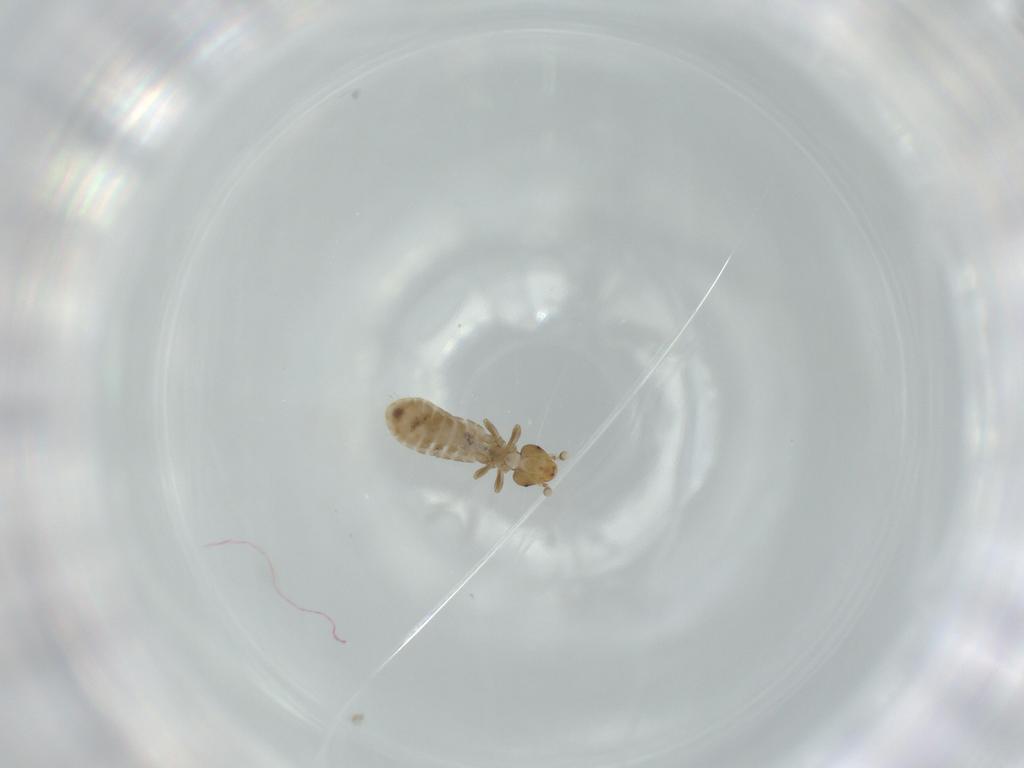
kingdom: Animalia
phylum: Arthropoda
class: Insecta
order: Psocodea
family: Liposcelididae
